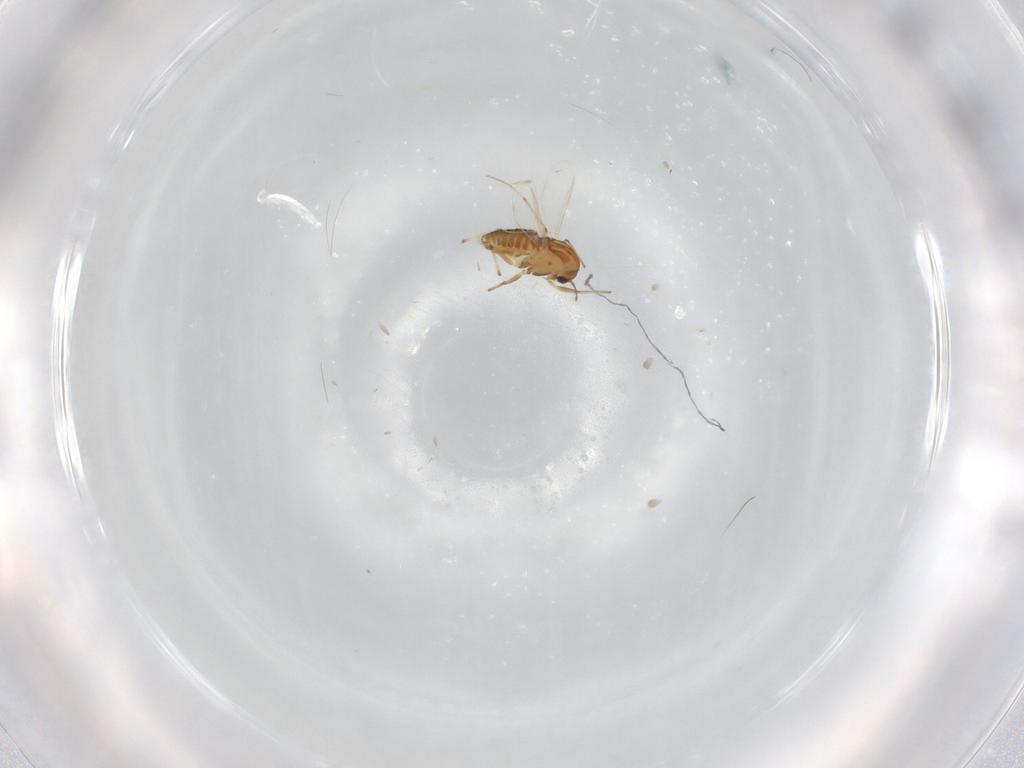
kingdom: Animalia
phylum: Arthropoda
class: Insecta
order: Diptera
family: Chironomidae
